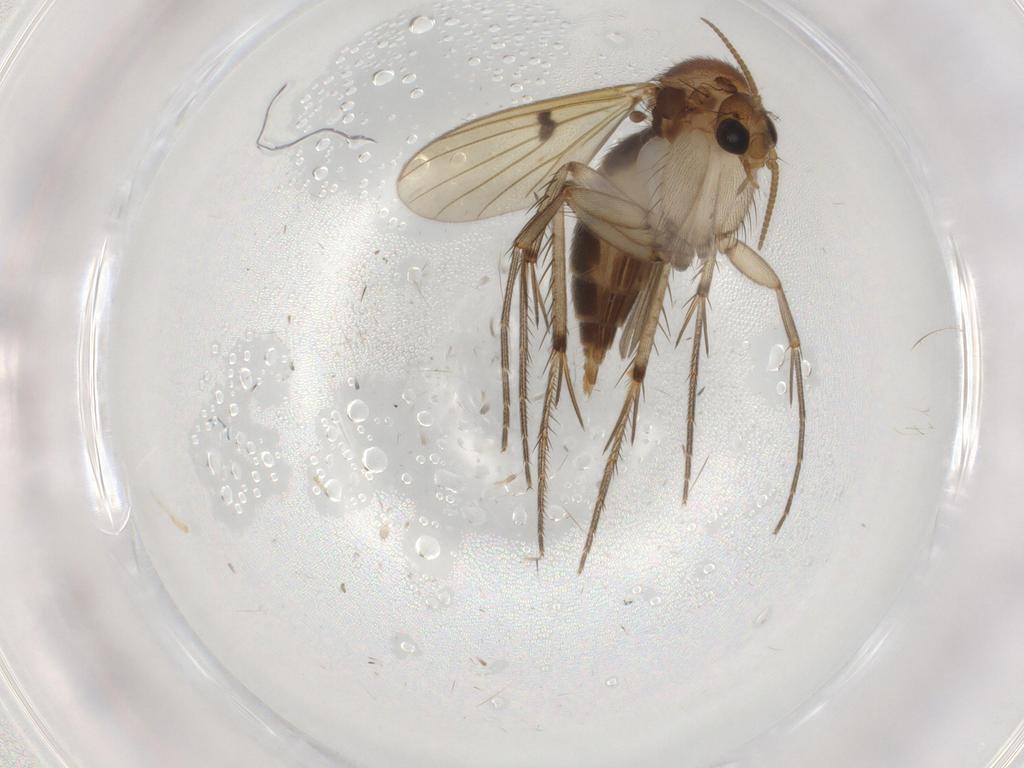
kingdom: Animalia
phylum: Arthropoda
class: Insecta
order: Diptera
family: Mycetophilidae
